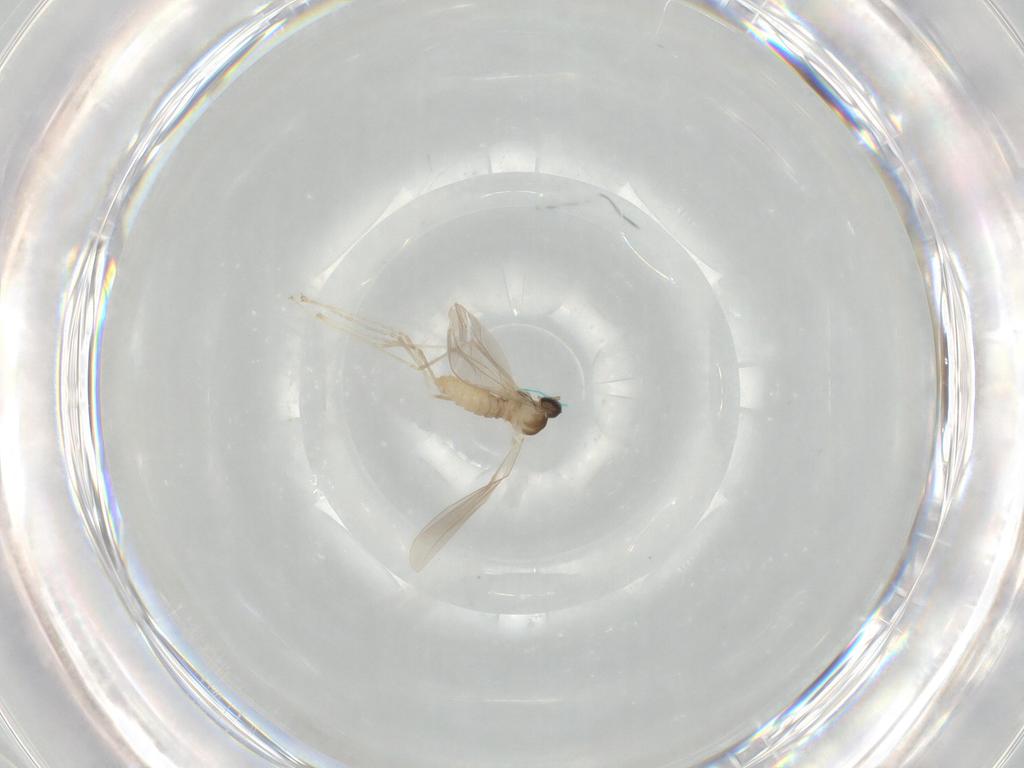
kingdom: Animalia
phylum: Arthropoda
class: Insecta
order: Diptera
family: Cecidomyiidae
